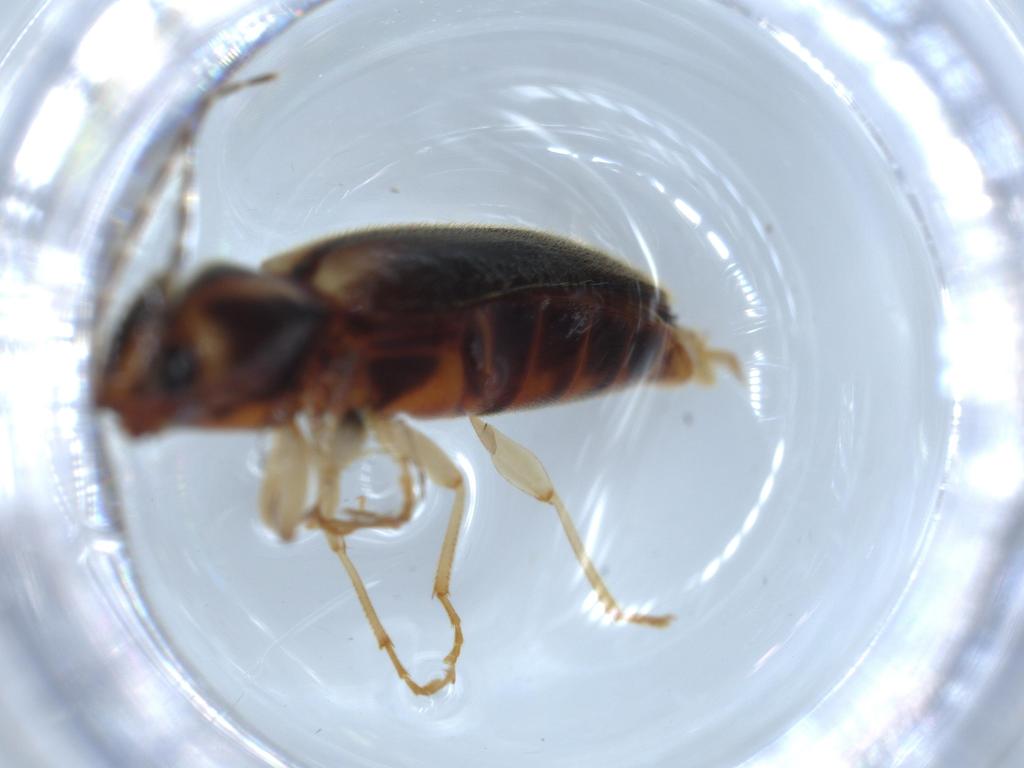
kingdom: Animalia
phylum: Arthropoda
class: Insecta
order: Coleoptera
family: Elateridae
